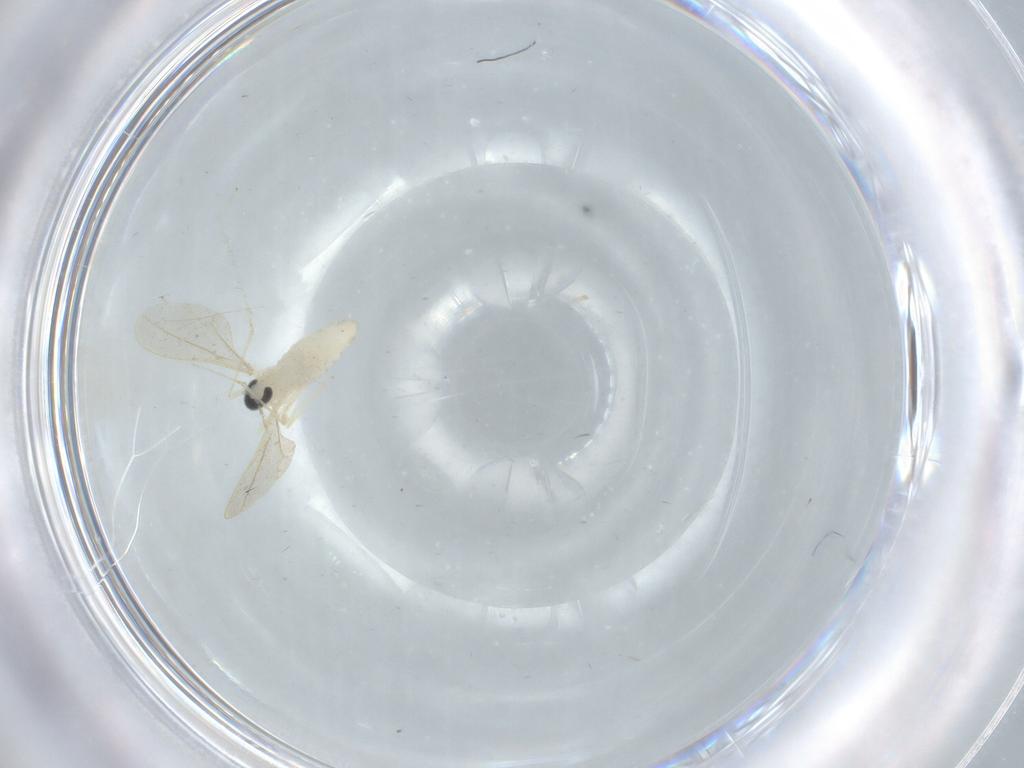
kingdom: Animalia
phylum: Arthropoda
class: Insecta
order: Diptera
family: Cecidomyiidae
